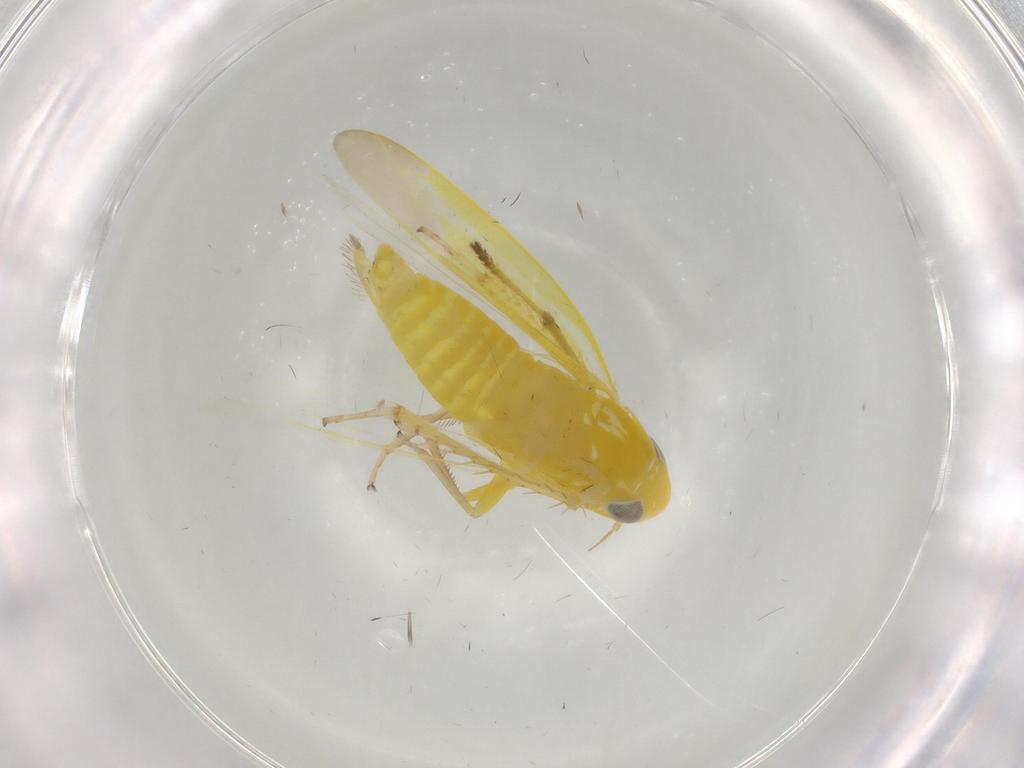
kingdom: Animalia
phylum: Arthropoda
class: Insecta
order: Hemiptera
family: Cicadellidae
